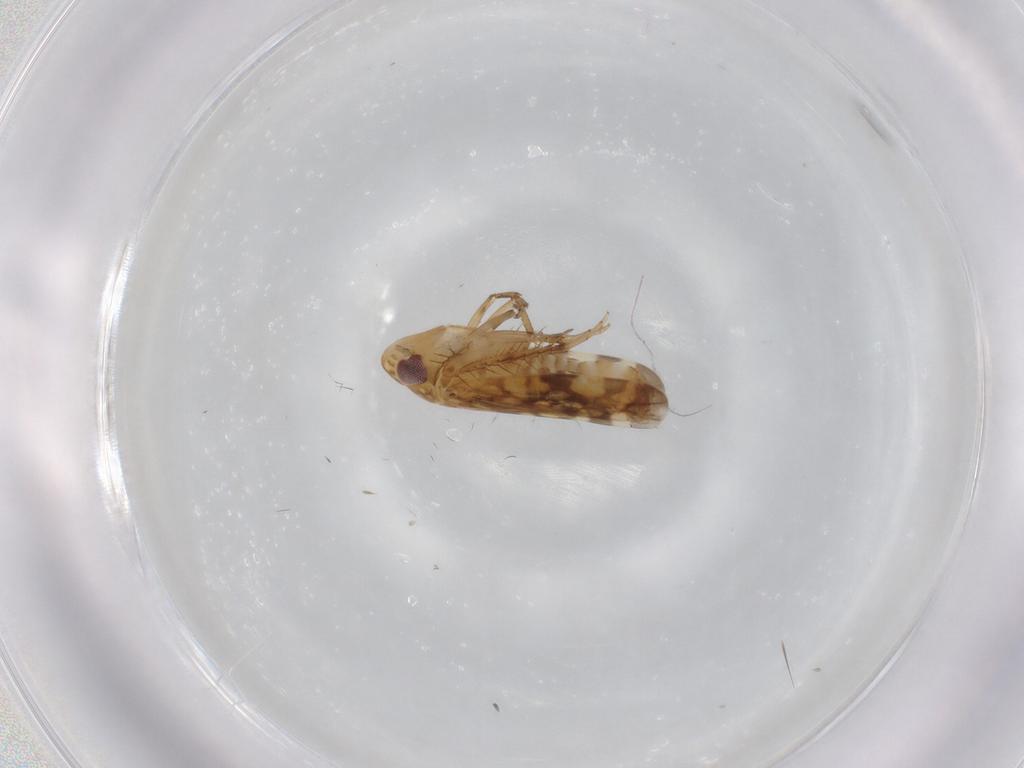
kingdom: Animalia
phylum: Arthropoda
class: Insecta
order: Hemiptera
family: Cicadellidae
